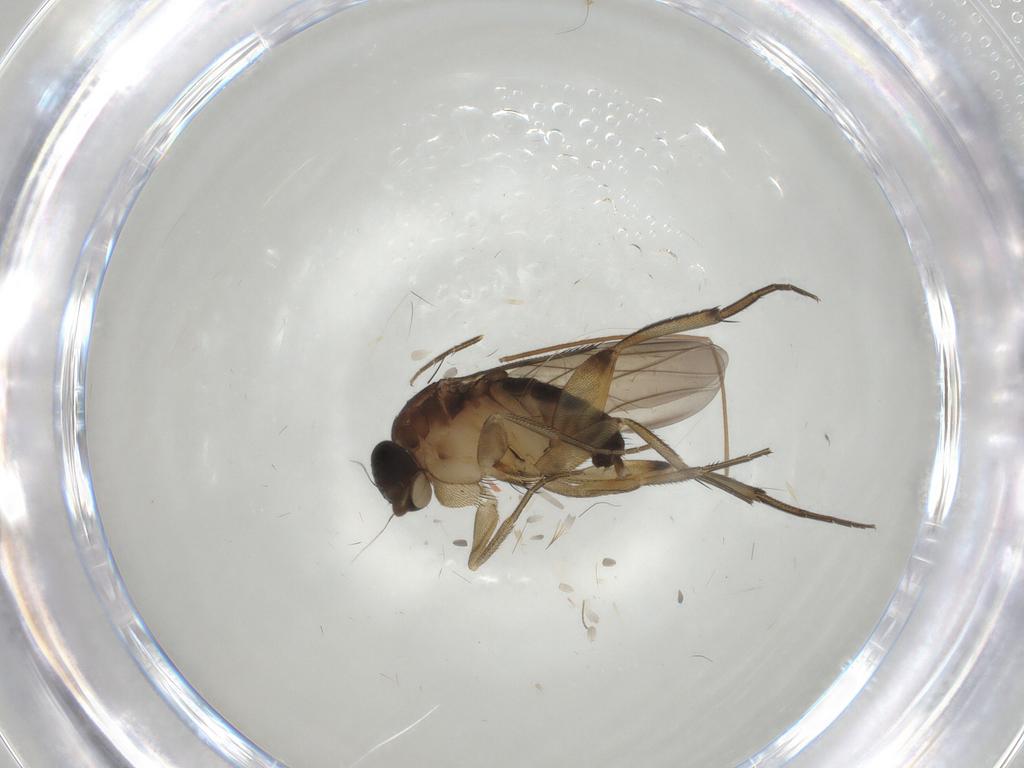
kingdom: Animalia
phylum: Arthropoda
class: Insecta
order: Diptera
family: Phoridae
